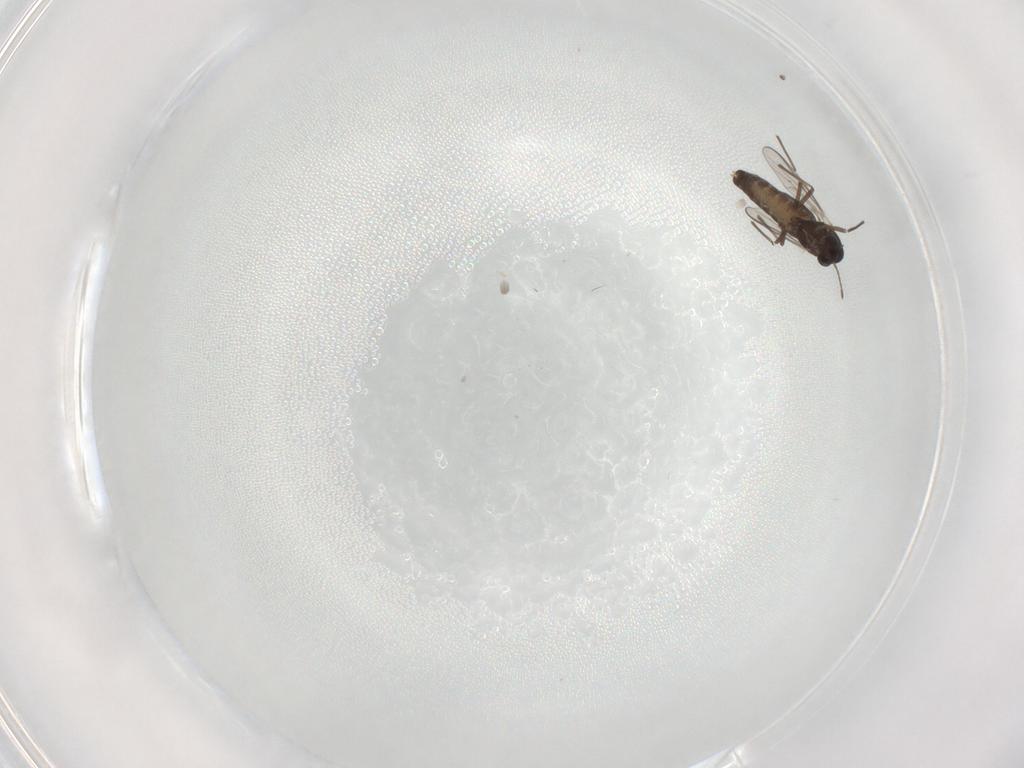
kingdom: Animalia
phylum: Arthropoda
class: Insecta
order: Diptera
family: Chironomidae
